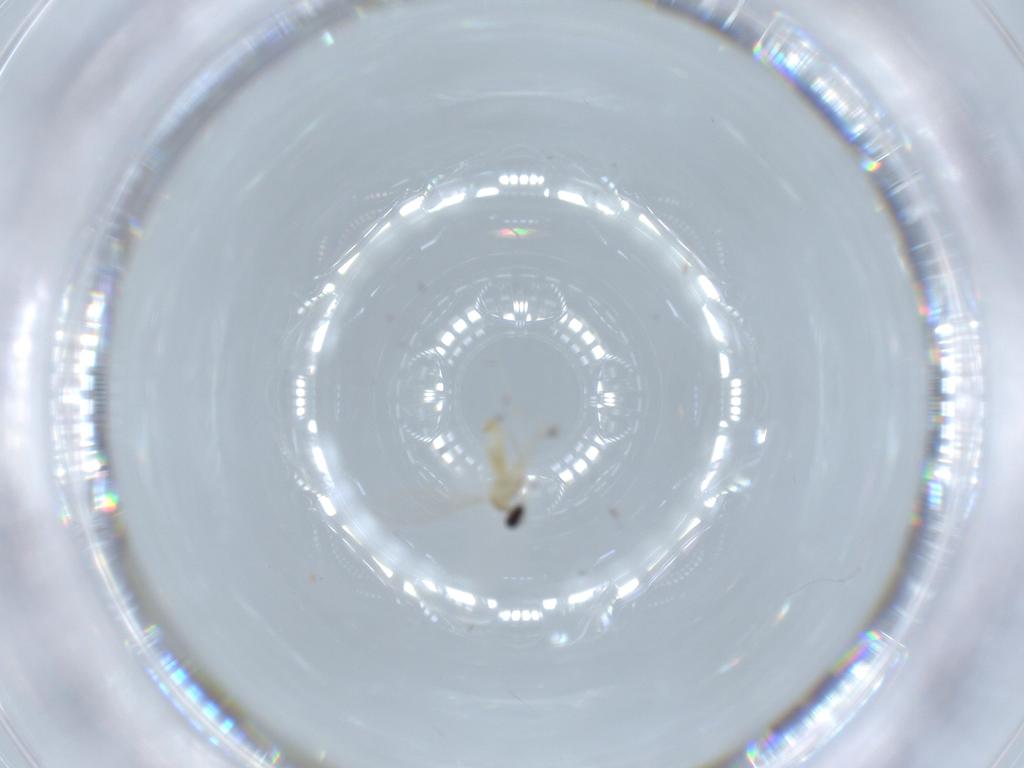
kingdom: Animalia
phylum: Arthropoda
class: Insecta
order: Diptera
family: Cecidomyiidae
